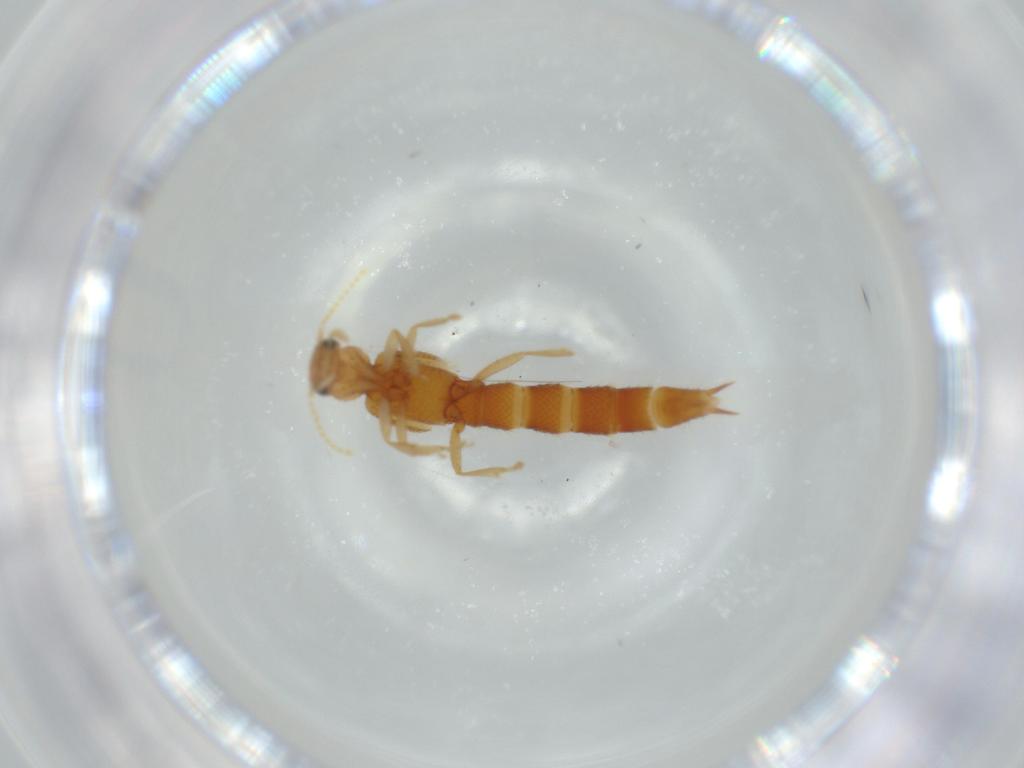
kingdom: Animalia
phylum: Arthropoda
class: Insecta
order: Coleoptera
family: Staphylinidae
